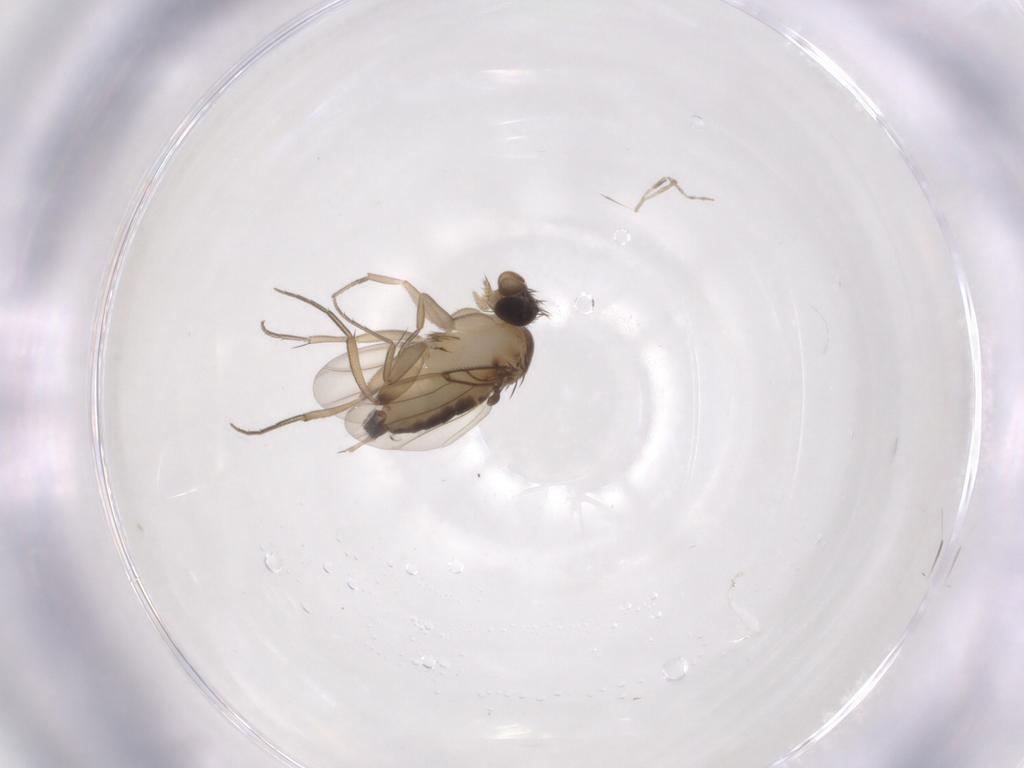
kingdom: Animalia
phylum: Arthropoda
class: Insecta
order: Diptera
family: Phoridae
